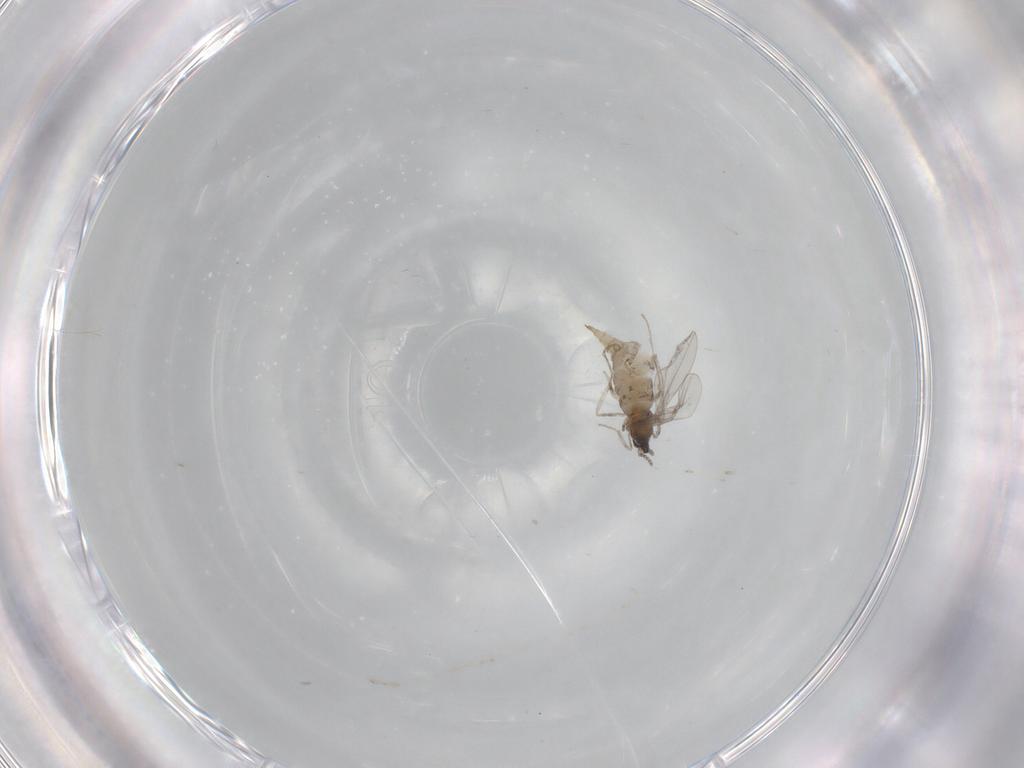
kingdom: Animalia
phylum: Arthropoda
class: Insecta
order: Diptera
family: Cecidomyiidae
